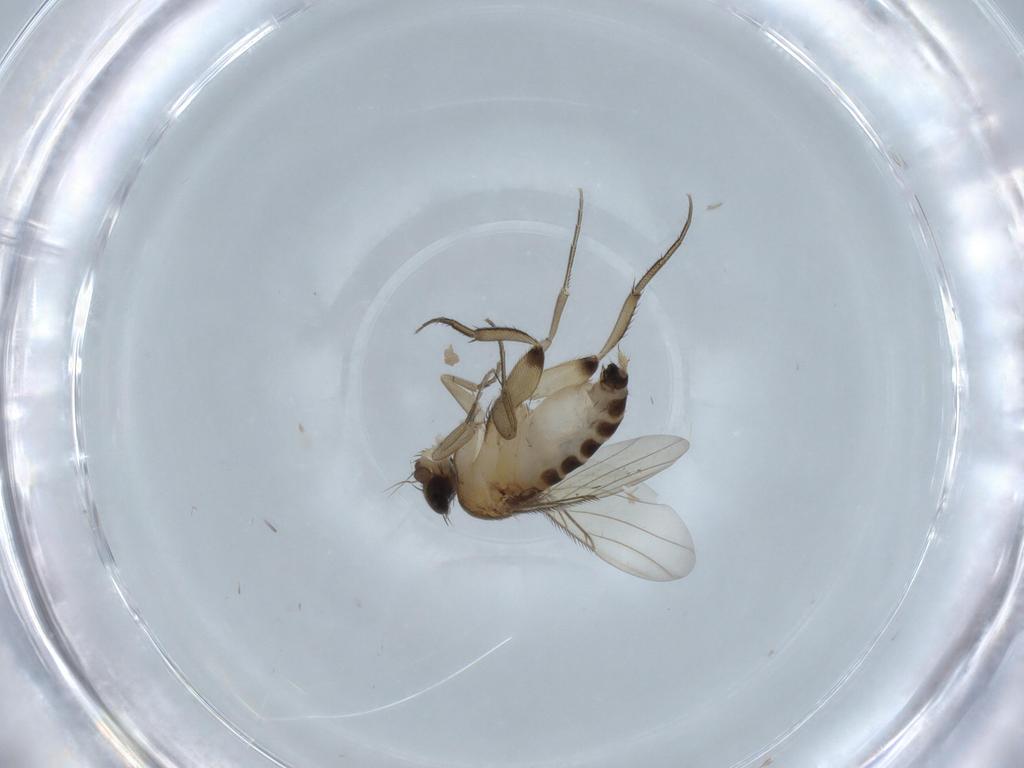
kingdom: Animalia
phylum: Arthropoda
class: Insecta
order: Diptera
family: Phoridae
